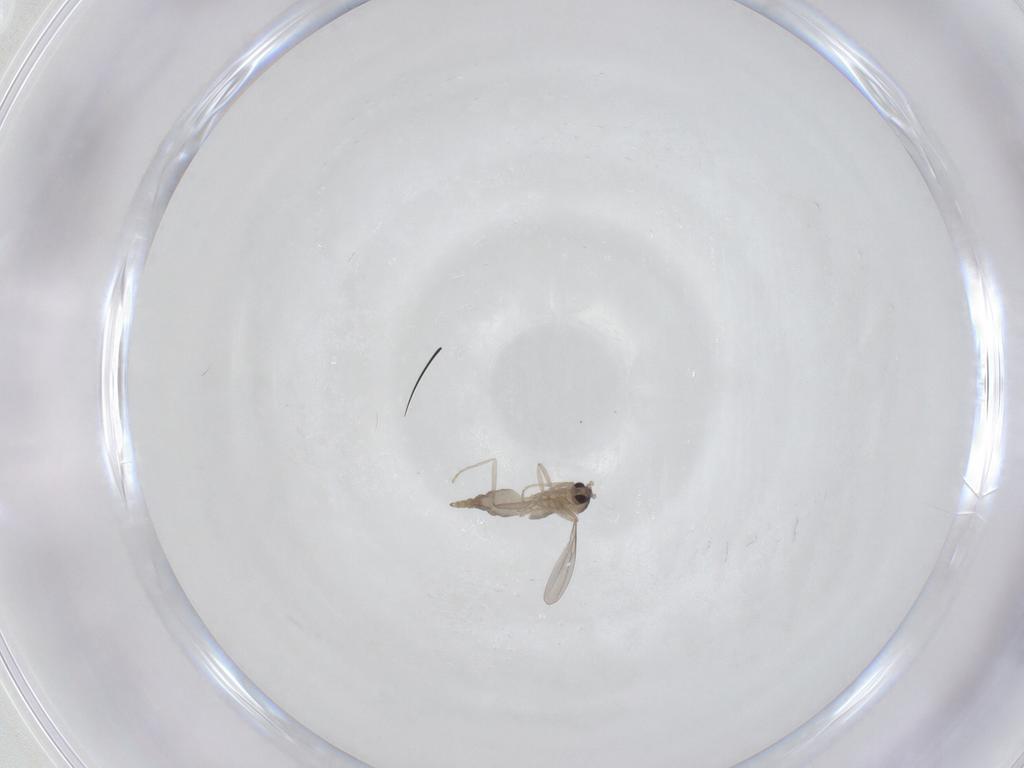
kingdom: Animalia
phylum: Arthropoda
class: Insecta
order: Diptera
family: Cecidomyiidae
